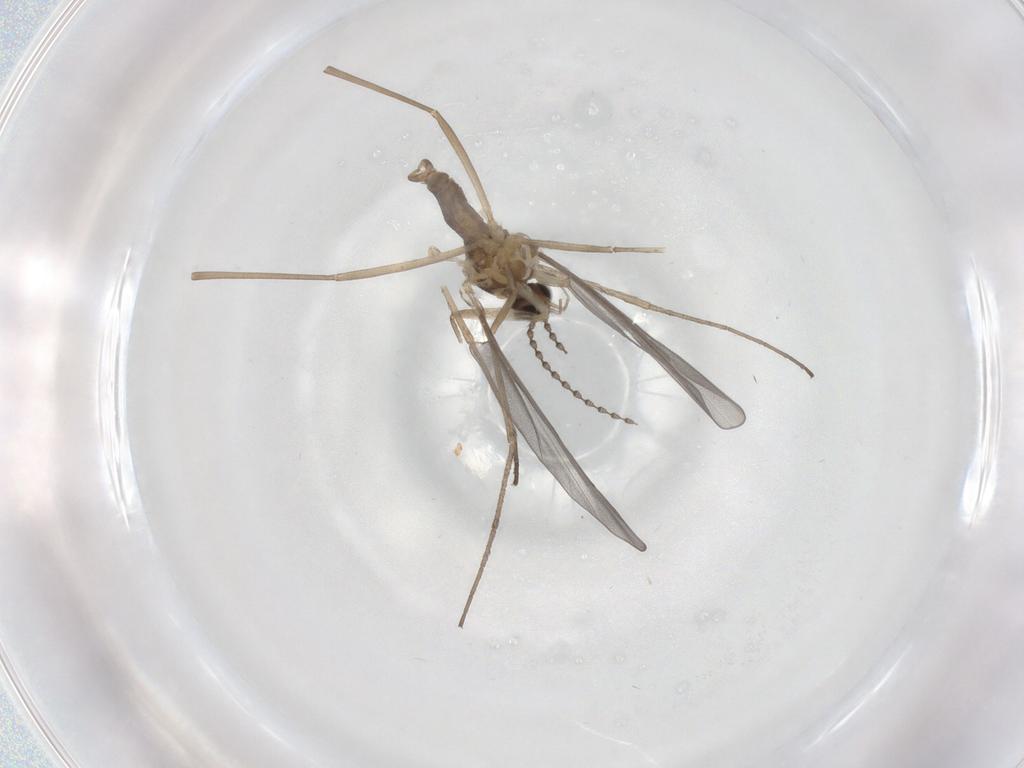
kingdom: Animalia
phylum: Arthropoda
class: Insecta
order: Diptera
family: Cecidomyiidae
